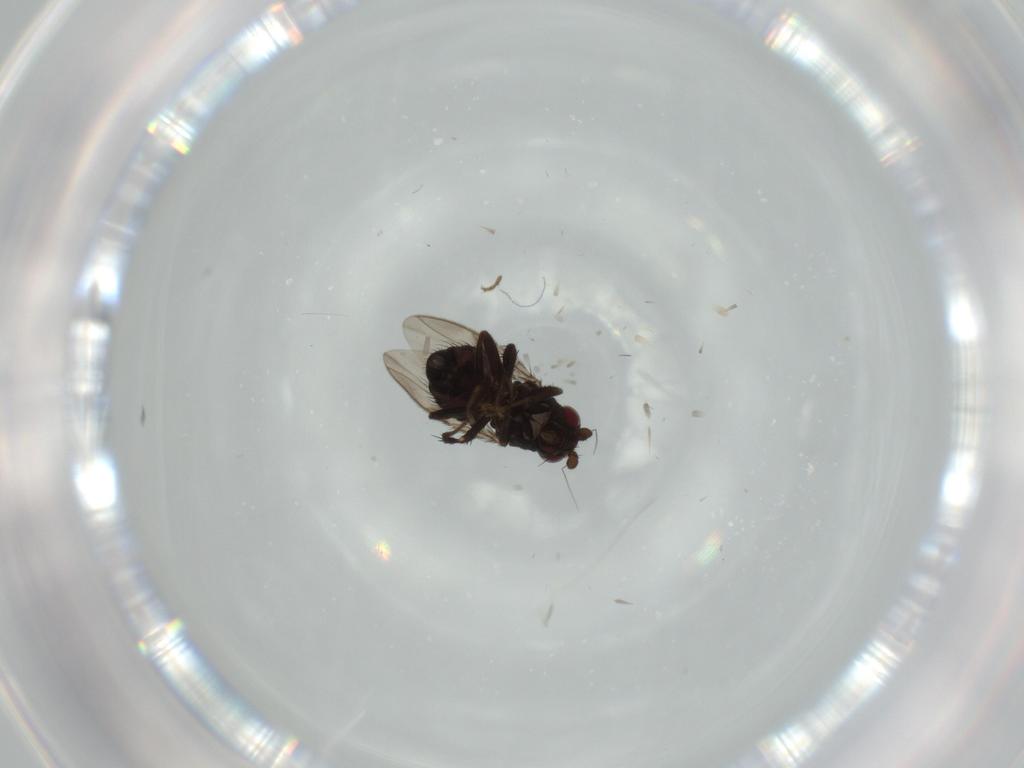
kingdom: Animalia
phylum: Arthropoda
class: Insecta
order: Diptera
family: Sphaeroceridae
